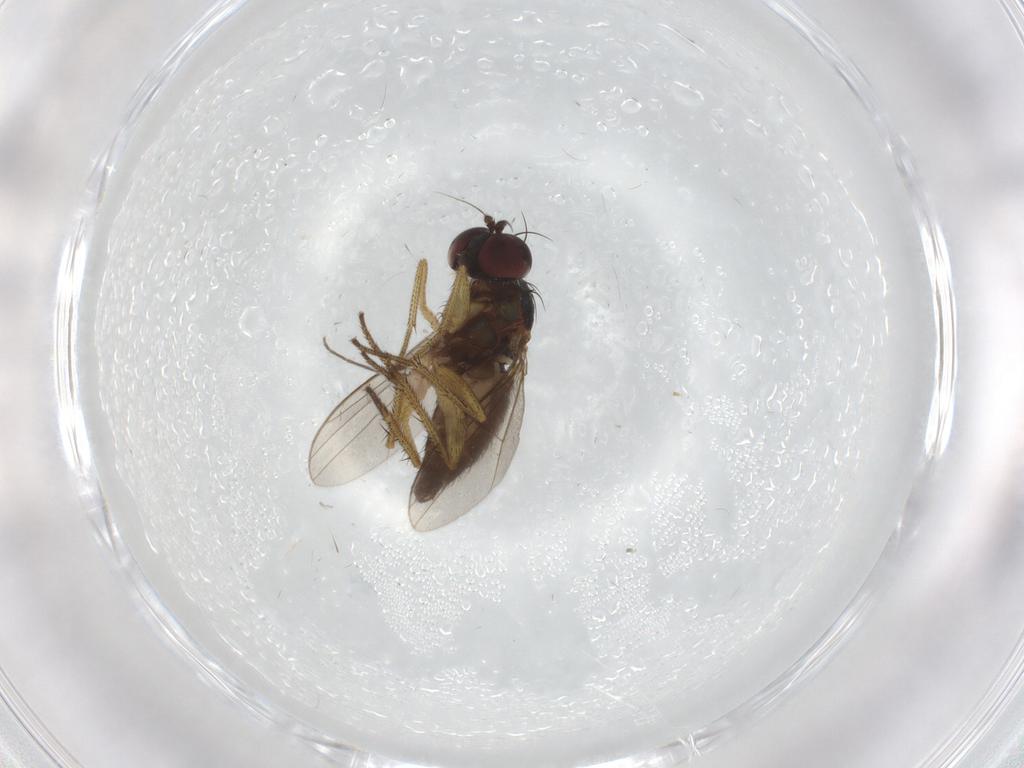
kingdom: Animalia
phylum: Arthropoda
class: Insecta
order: Diptera
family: Dolichopodidae
